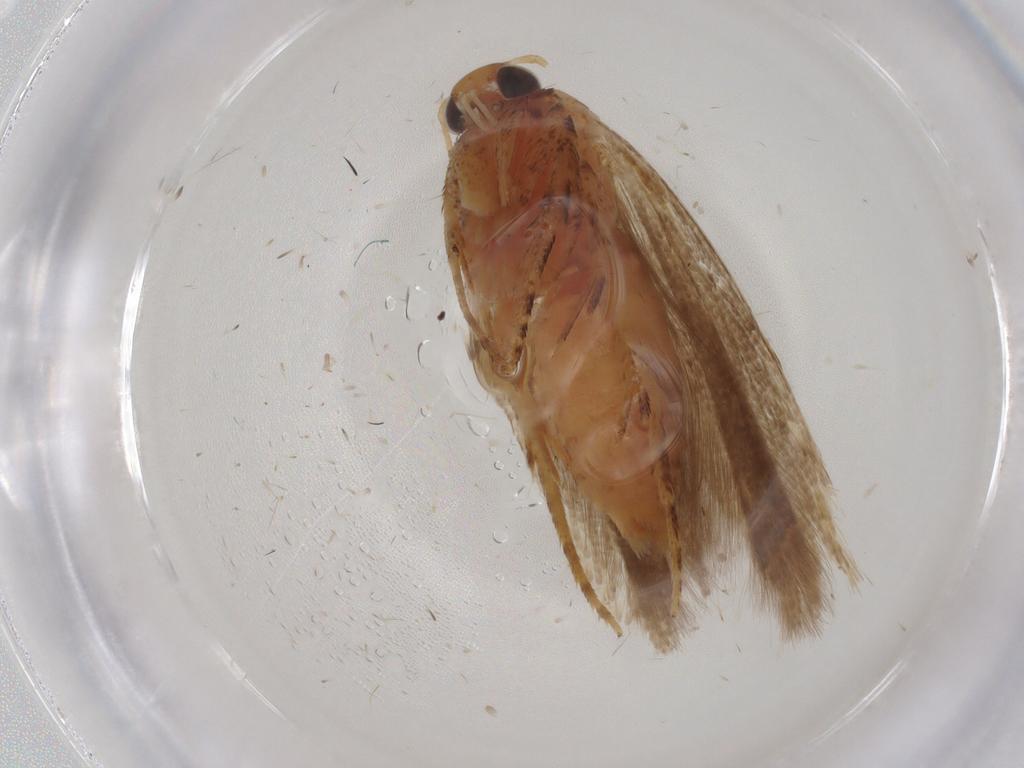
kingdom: Animalia
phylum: Arthropoda
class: Insecta
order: Lepidoptera
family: Gelechiidae
